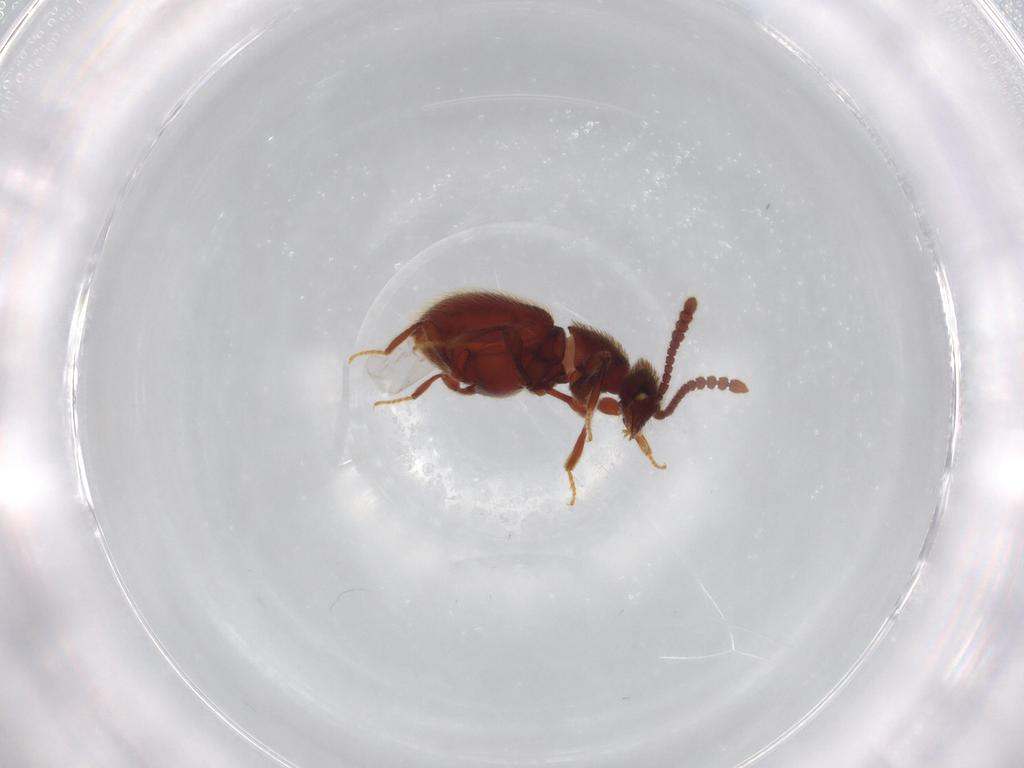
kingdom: Animalia
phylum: Arthropoda
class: Insecta
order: Coleoptera
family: Staphylinidae
